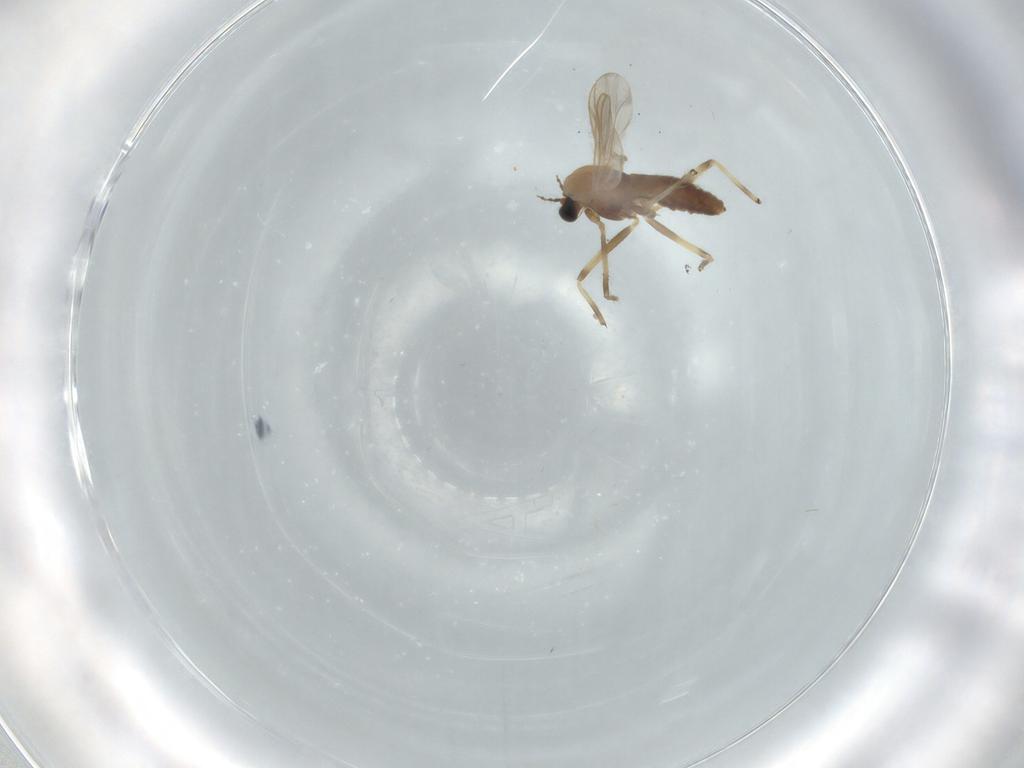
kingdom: Animalia
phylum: Arthropoda
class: Insecta
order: Diptera
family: Chironomidae
